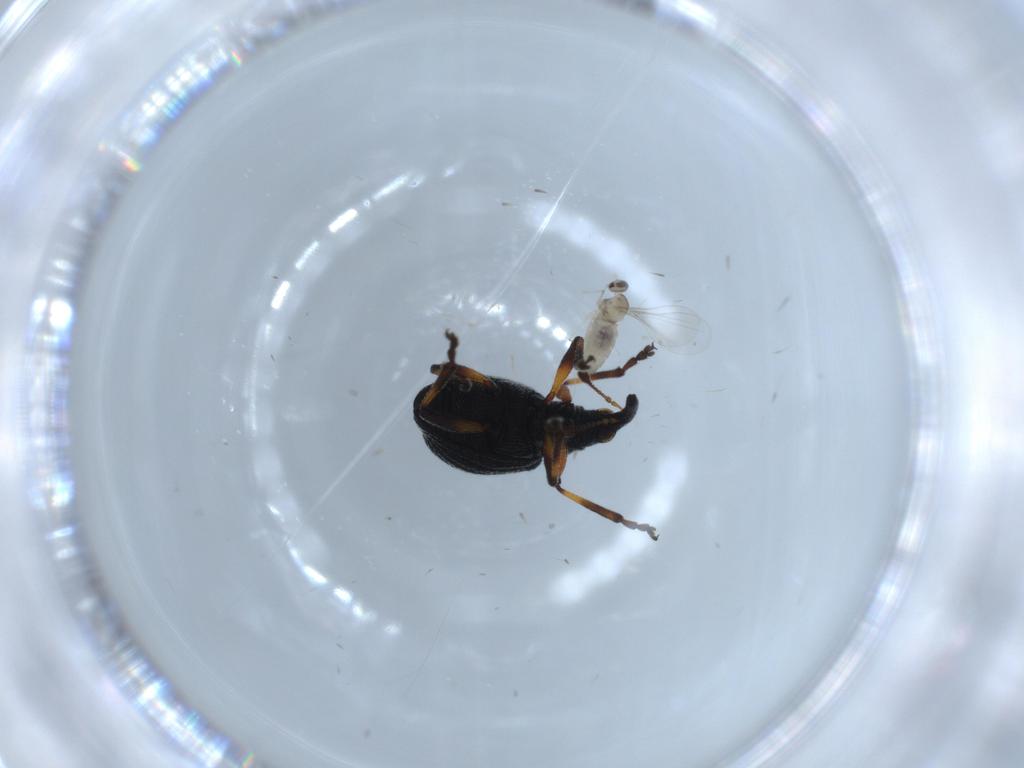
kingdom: Animalia
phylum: Arthropoda
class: Insecta
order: Coleoptera
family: Brentidae
